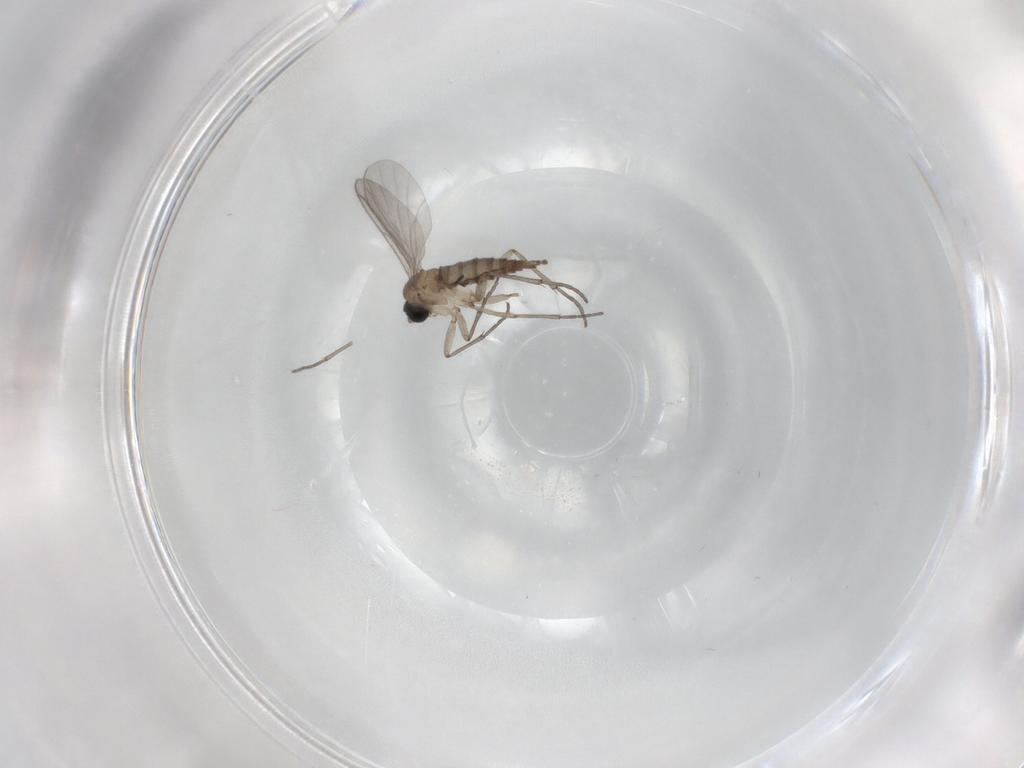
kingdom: Animalia
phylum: Arthropoda
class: Insecta
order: Diptera
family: Sciaridae
